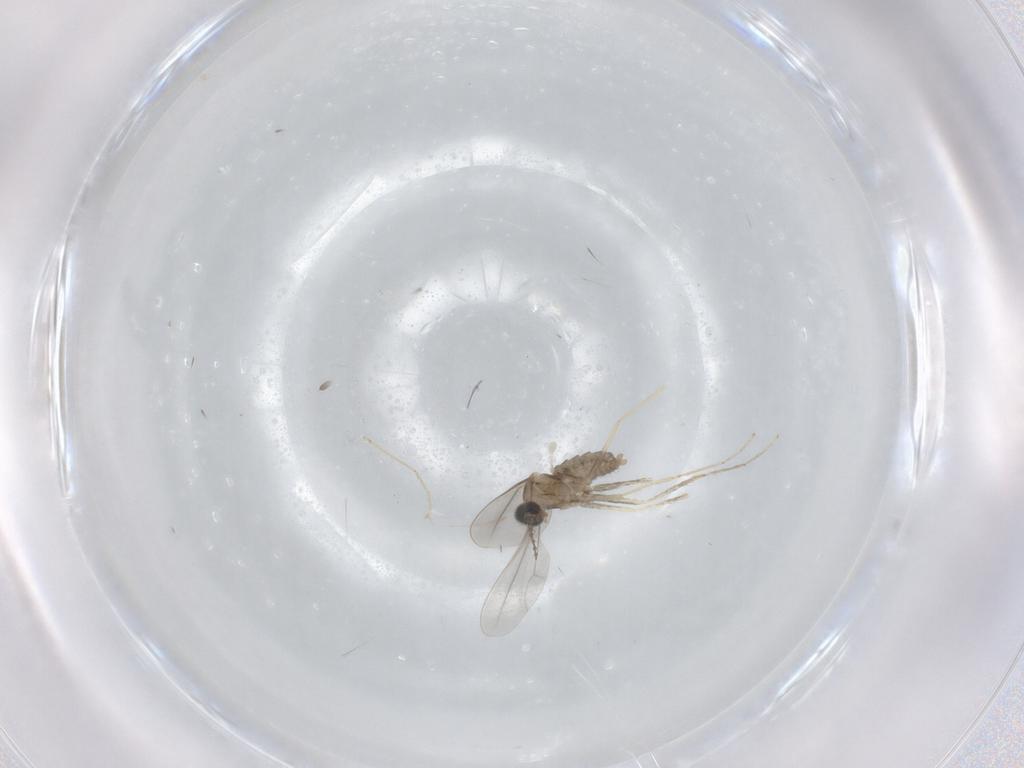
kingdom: Animalia
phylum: Arthropoda
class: Insecta
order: Diptera
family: Cecidomyiidae
